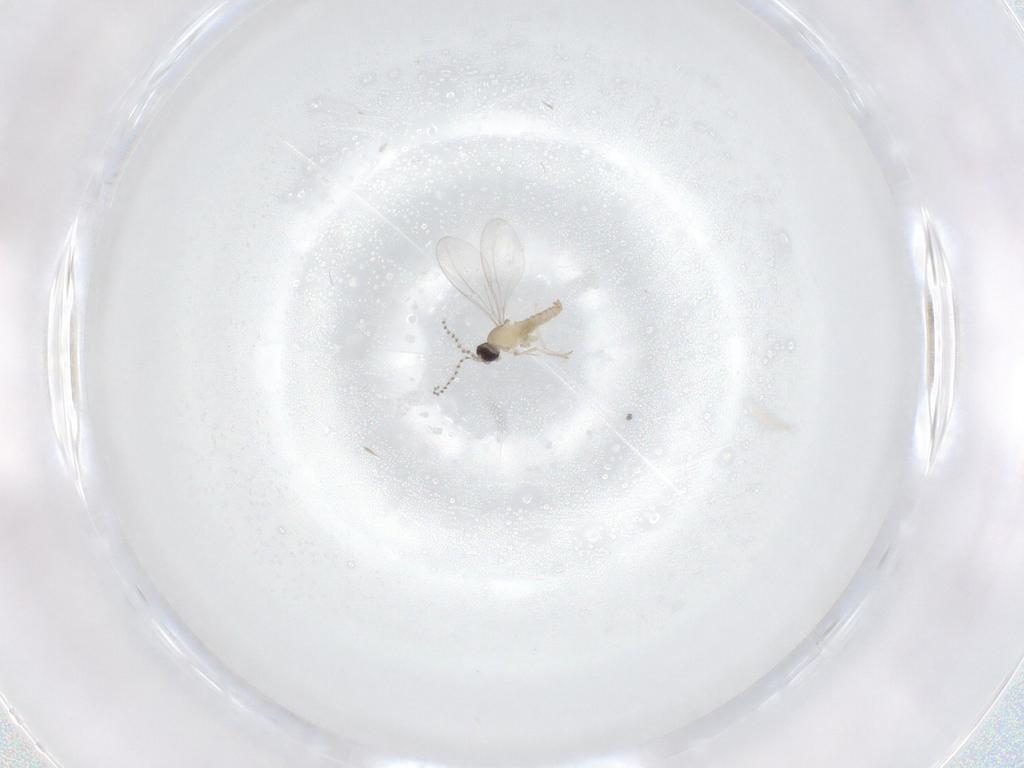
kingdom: Animalia
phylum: Arthropoda
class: Insecta
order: Diptera
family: Cecidomyiidae
